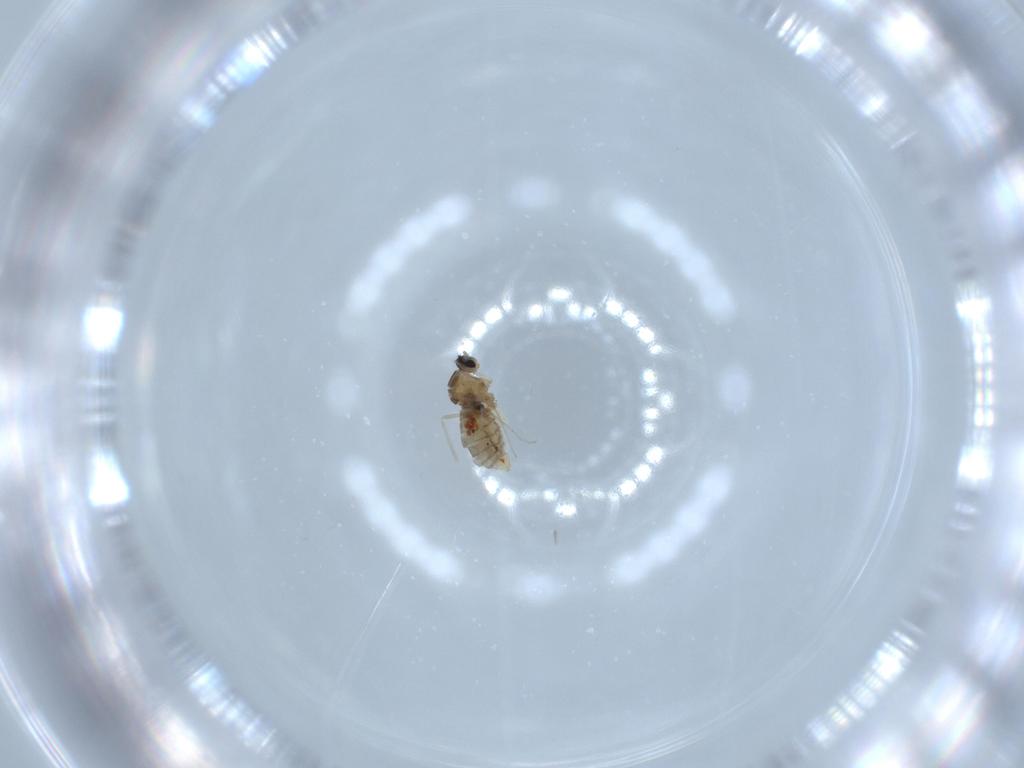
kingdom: Animalia
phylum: Arthropoda
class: Insecta
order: Diptera
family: Cecidomyiidae
